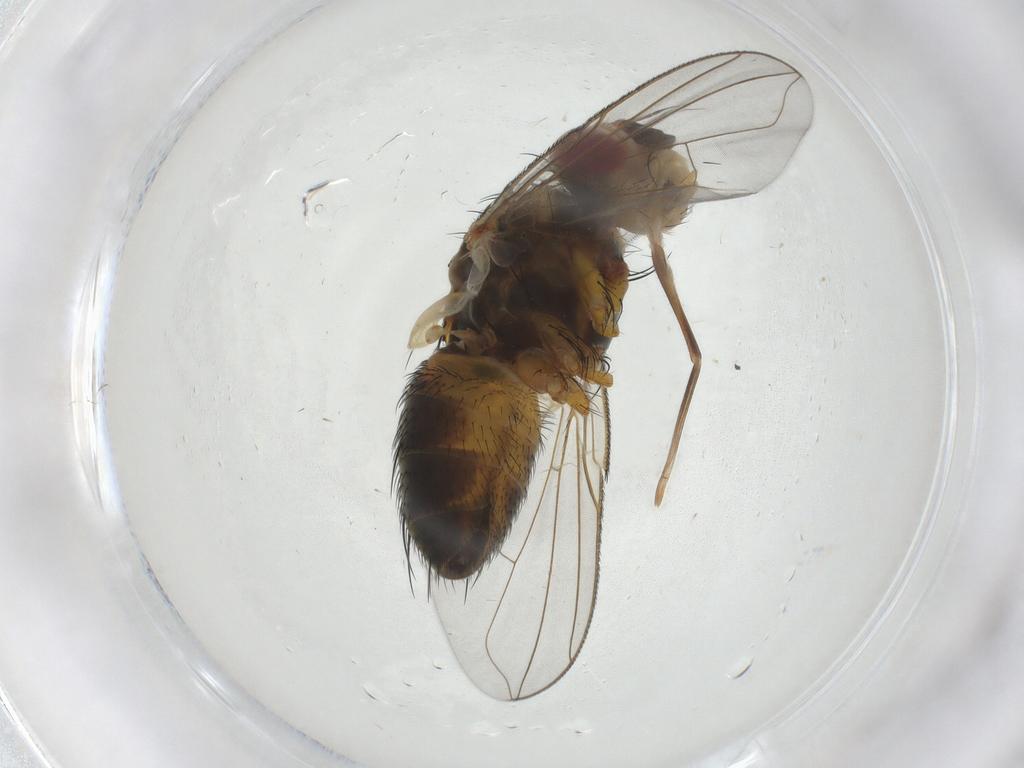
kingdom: Animalia
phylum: Arthropoda
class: Insecta
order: Diptera
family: Tachinidae
